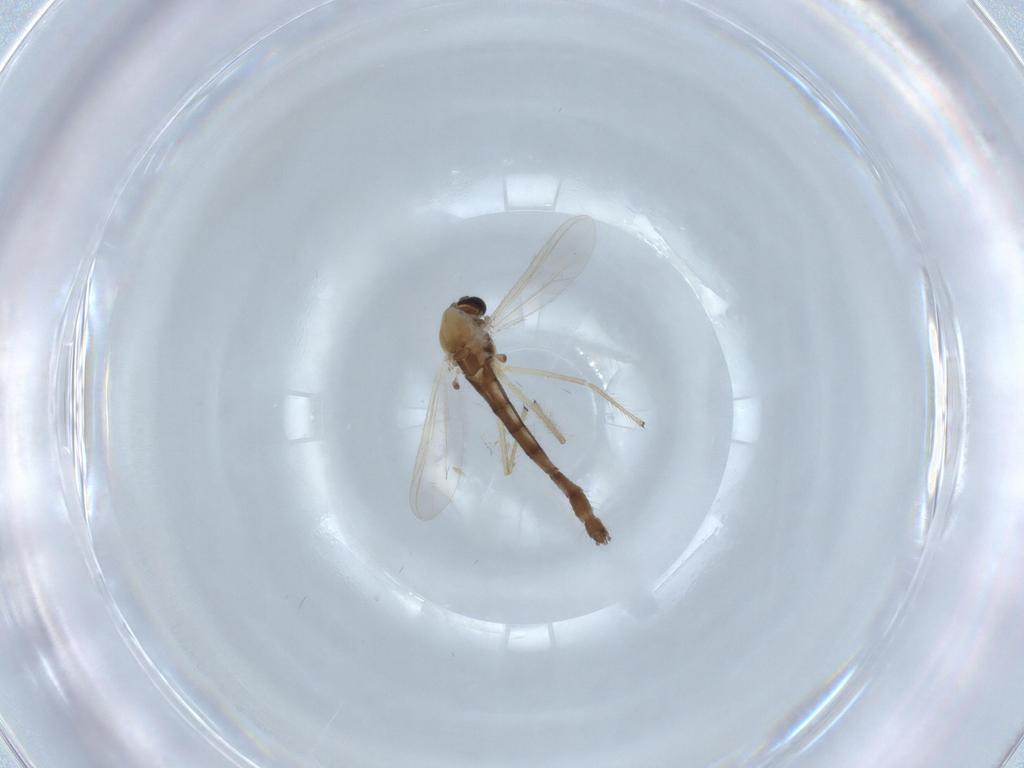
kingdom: Animalia
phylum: Arthropoda
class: Insecta
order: Diptera
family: Chironomidae
